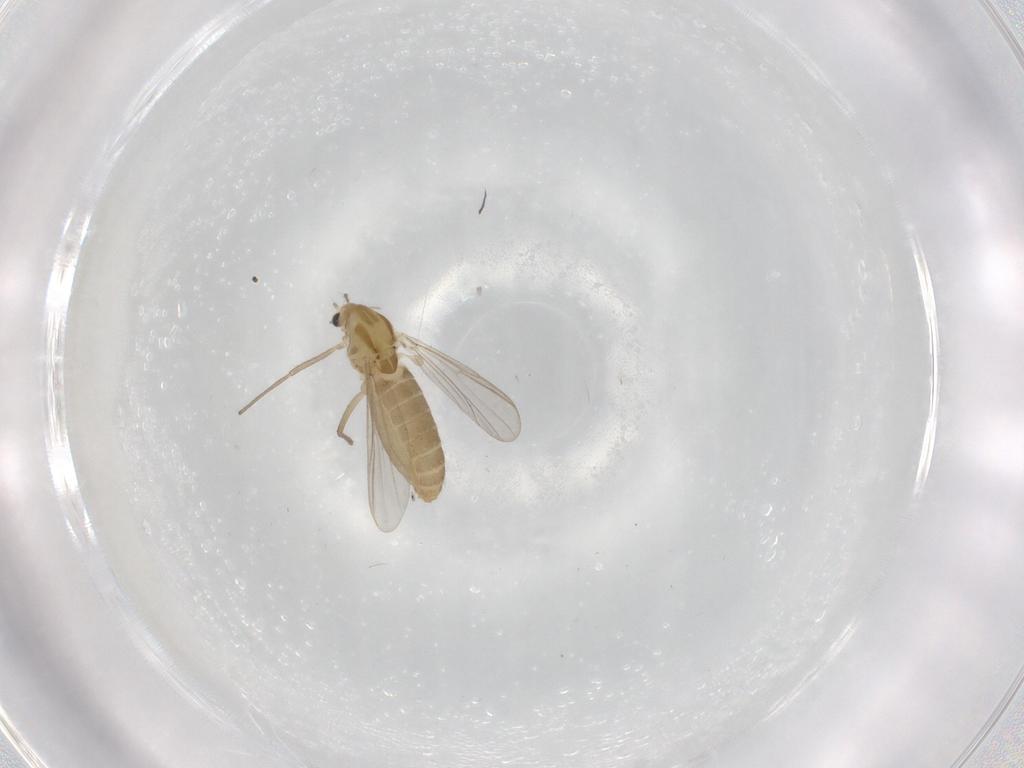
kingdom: Animalia
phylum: Arthropoda
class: Insecta
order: Diptera
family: Chironomidae
